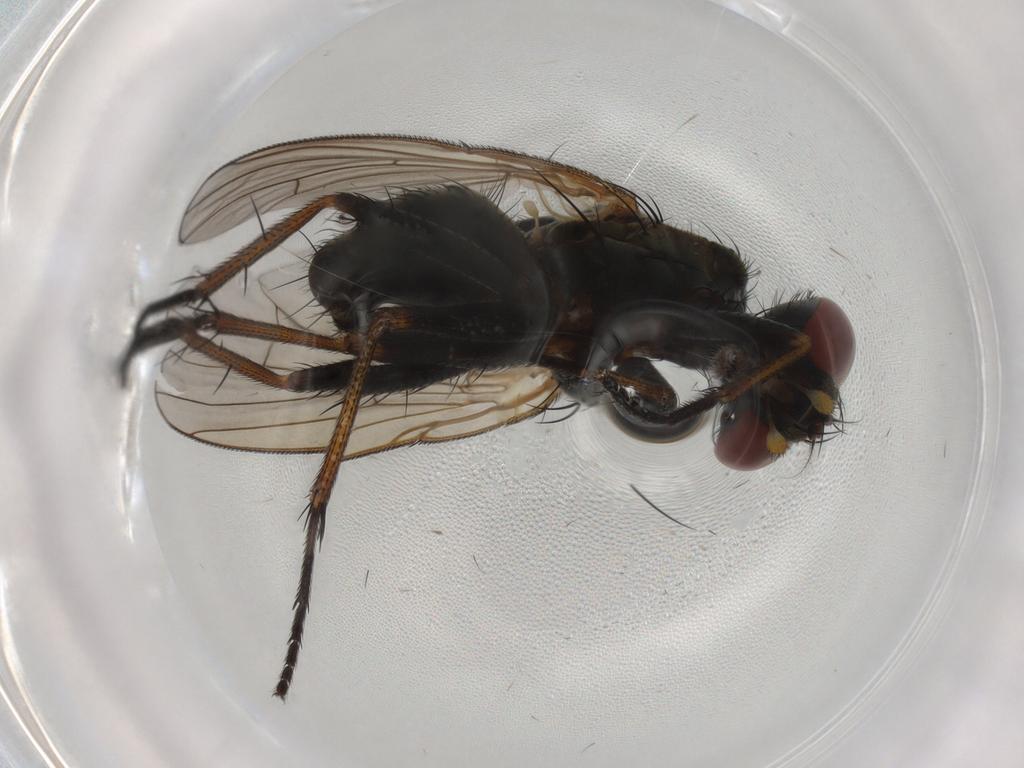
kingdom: Animalia
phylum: Arthropoda
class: Insecta
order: Diptera
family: Muscidae
